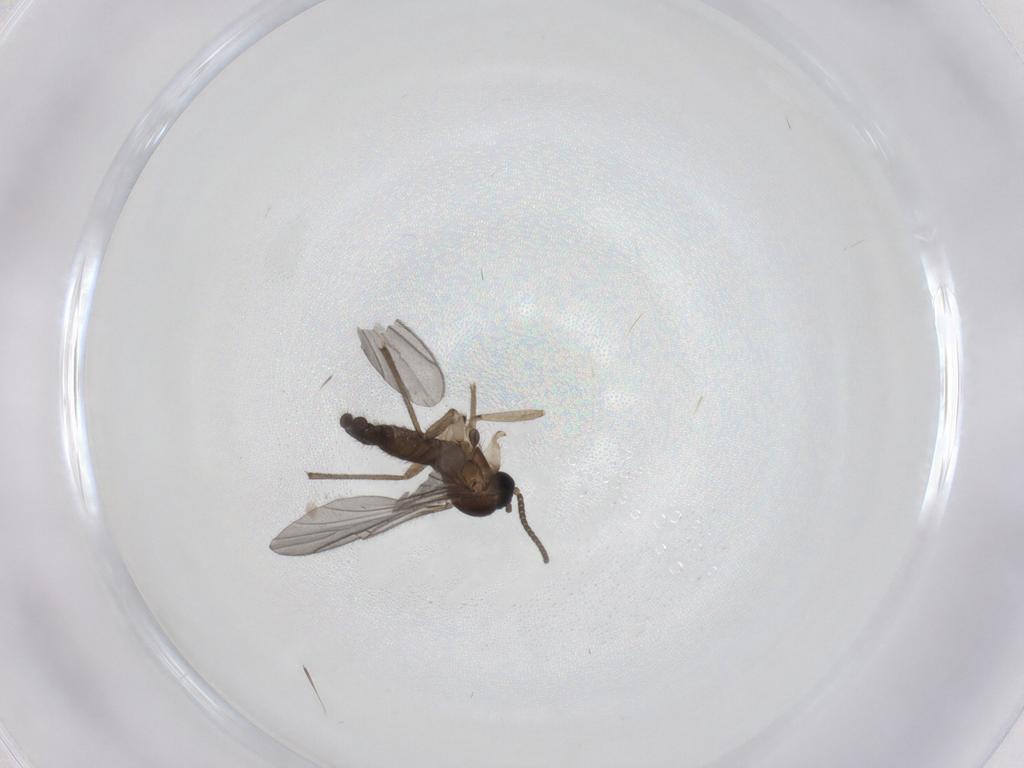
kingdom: Animalia
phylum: Arthropoda
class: Insecta
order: Diptera
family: Sciaridae
